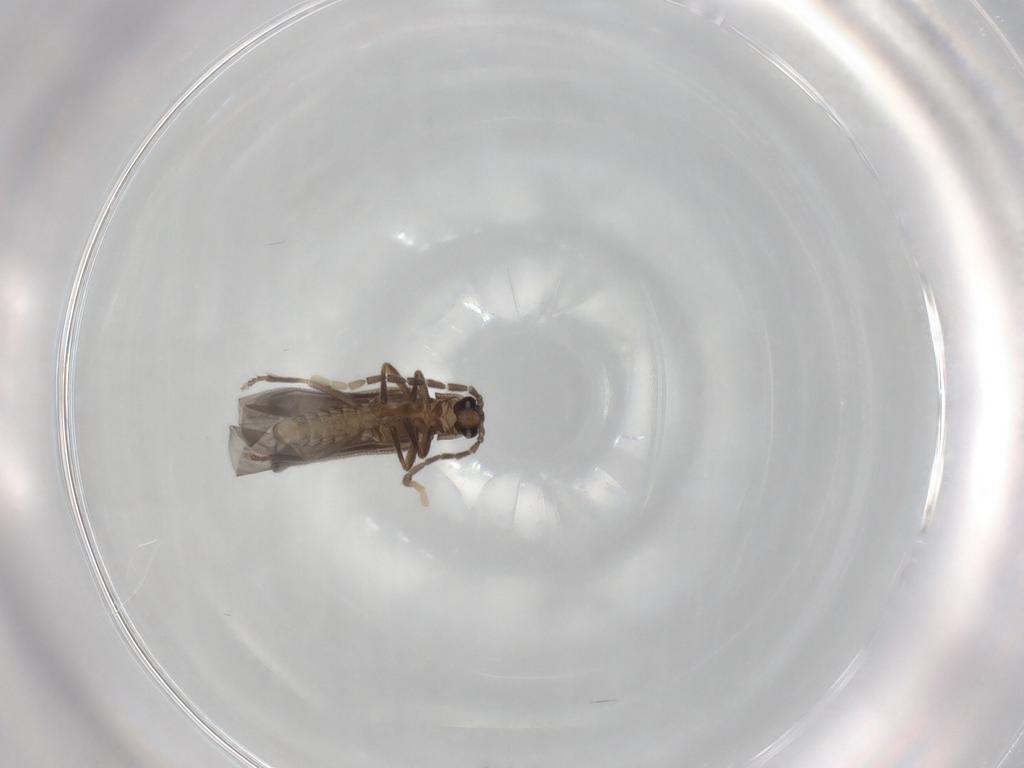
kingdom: Animalia
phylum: Arthropoda
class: Insecta
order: Coleoptera
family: Lampyridae
